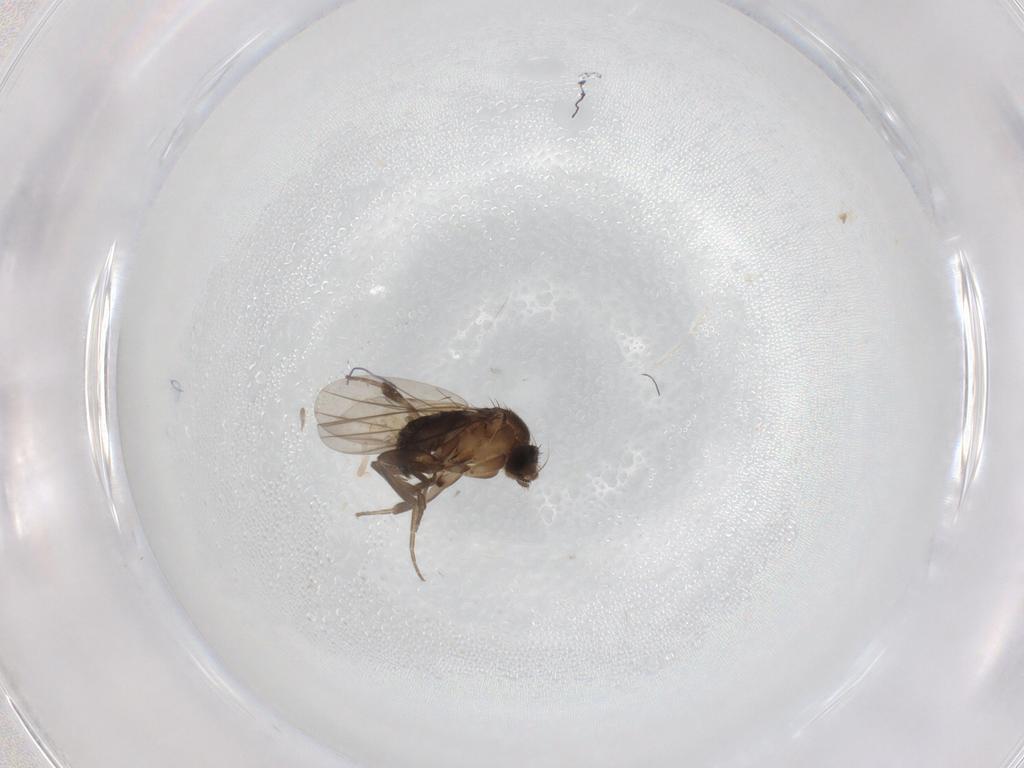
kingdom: Animalia
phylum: Arthropoda
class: Insecta
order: Diptera
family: Phoridae
